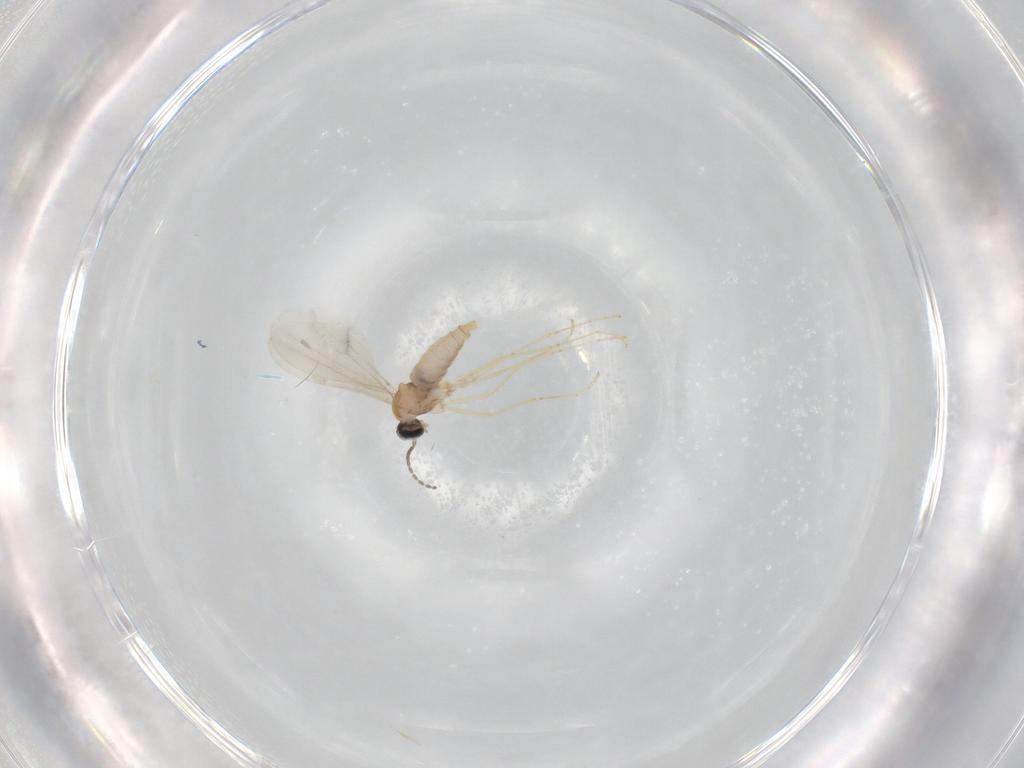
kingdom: Animalia
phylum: Arthropoda
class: Insecta
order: Diptera
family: Cecidomyiidae
